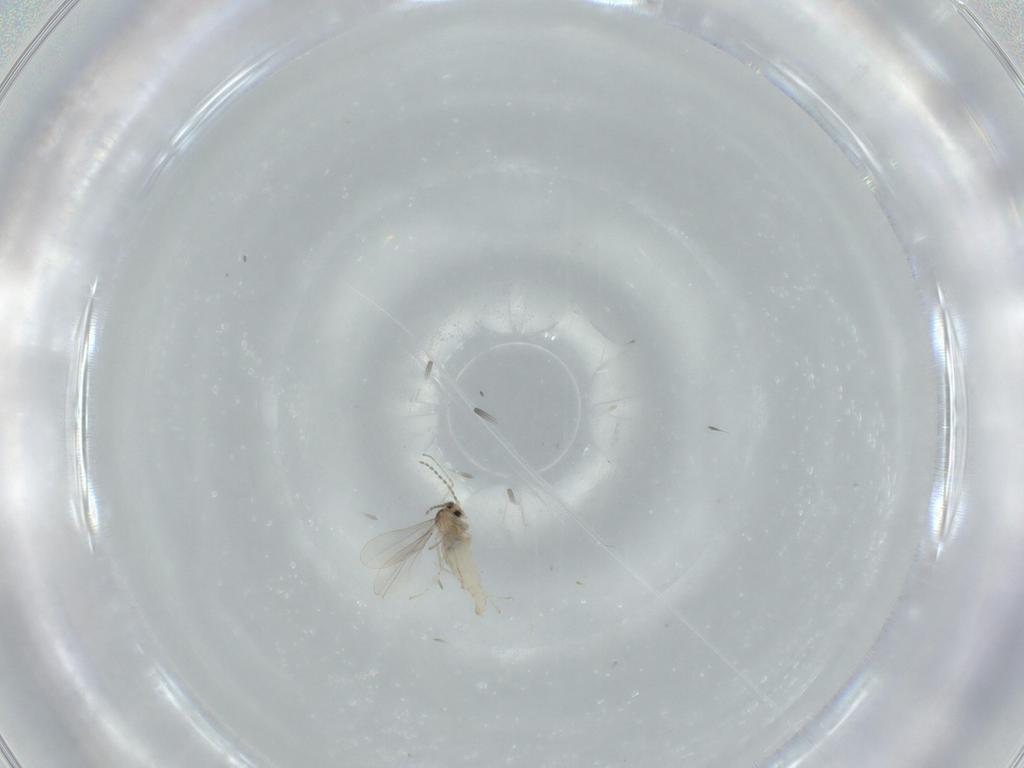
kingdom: Animalia
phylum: Arthropoda
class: Insecta
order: Diptera
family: Cecidomyiidae
